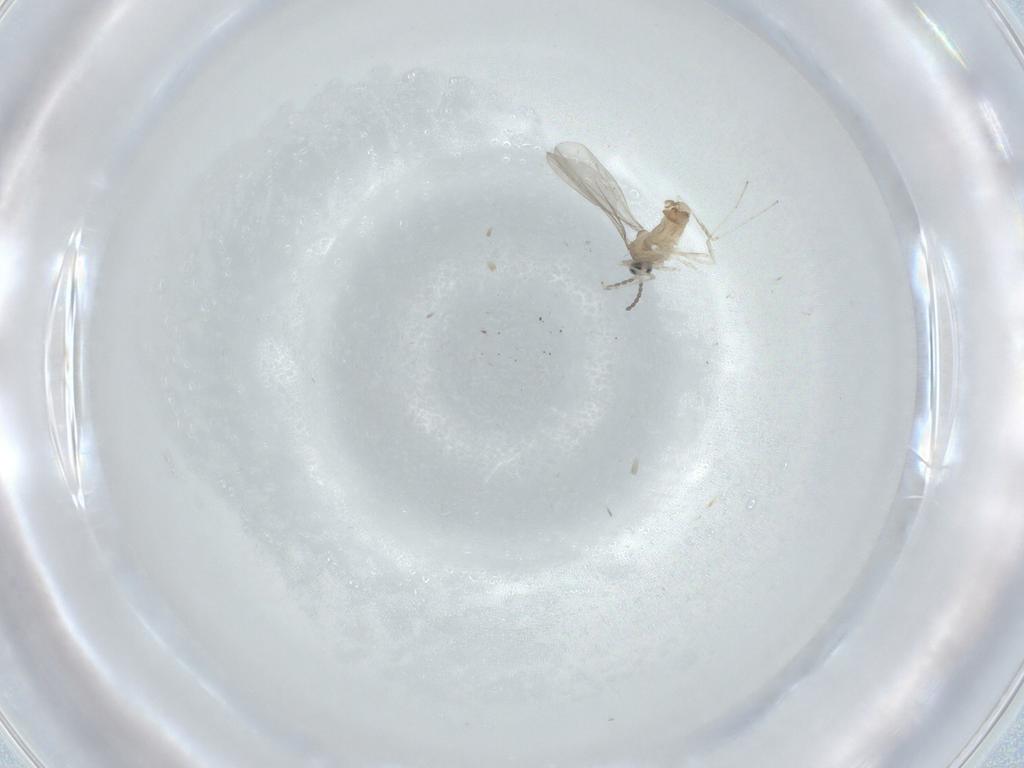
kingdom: Animalia
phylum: Arthropoda
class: Insecta
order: Diptera
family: Cecidomyiidae
